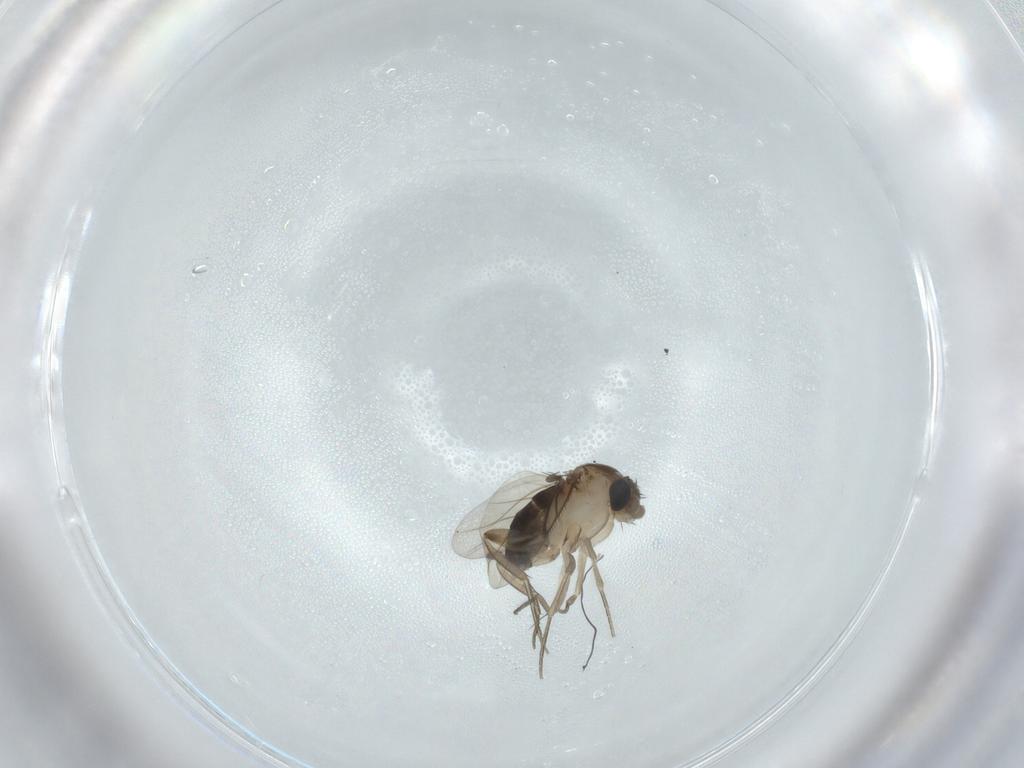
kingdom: Animalia
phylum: Arthropoda
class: Insecta
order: Diptera
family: Phoridae
